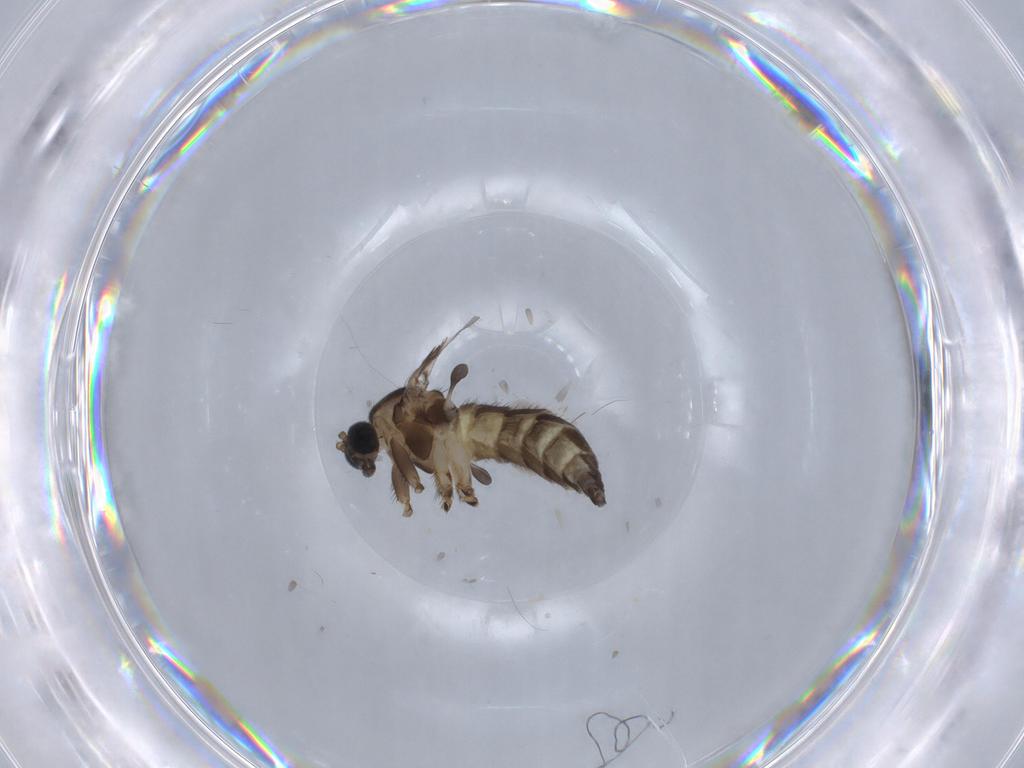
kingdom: Animalia
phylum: Arthropoda
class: Insecta
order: Diptera
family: Sciaridae
